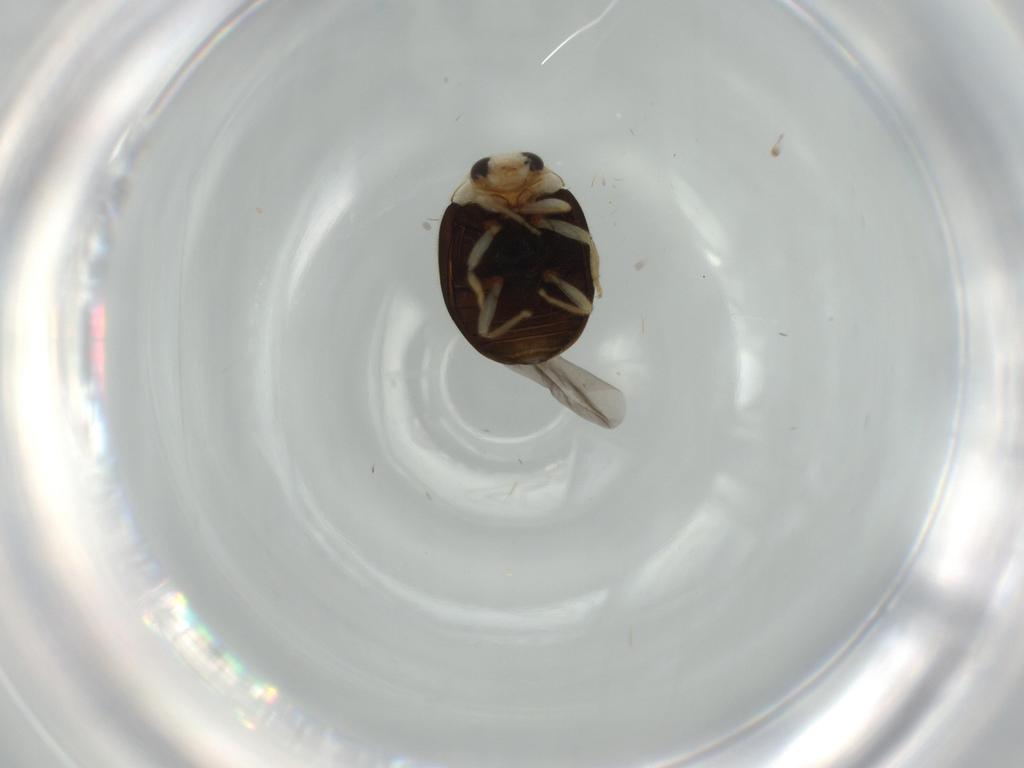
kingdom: Animalia
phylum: Arthropoda
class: Insecta
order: Coleoptera
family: Coccinellidae
